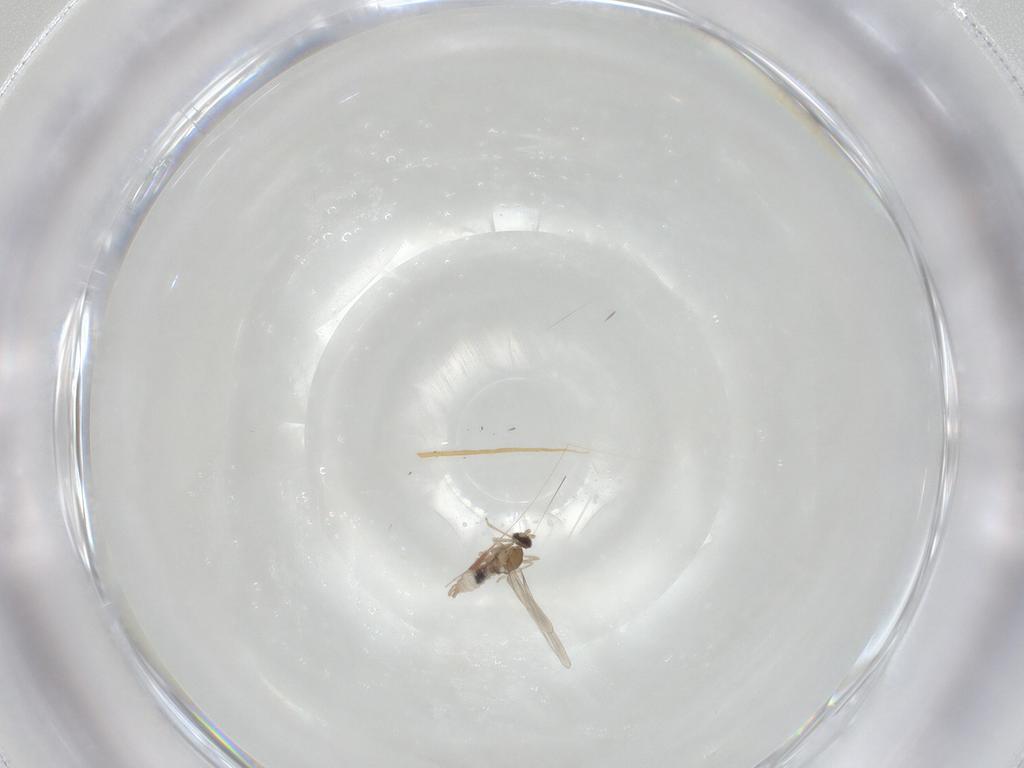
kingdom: Animalia
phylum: Arthropoda
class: Insecta
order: Diptera
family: Cecidomyiidae
